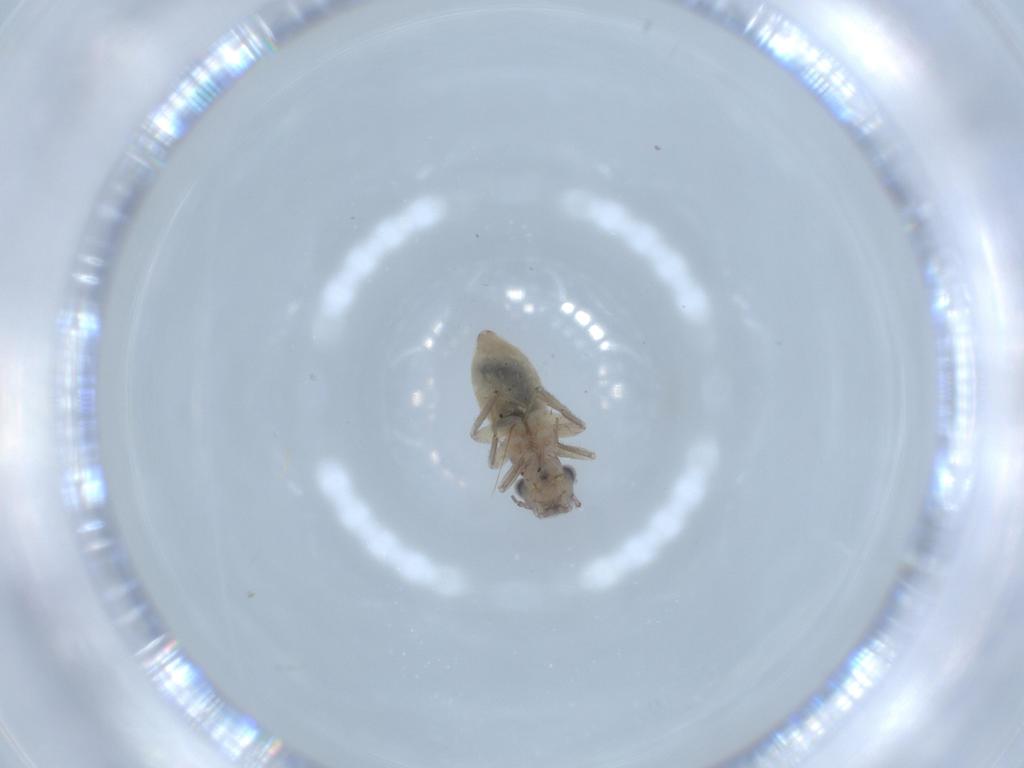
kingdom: Animalia
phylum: Arthropoda
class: Insecta
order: Psocodea
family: Lepidopsocidae
